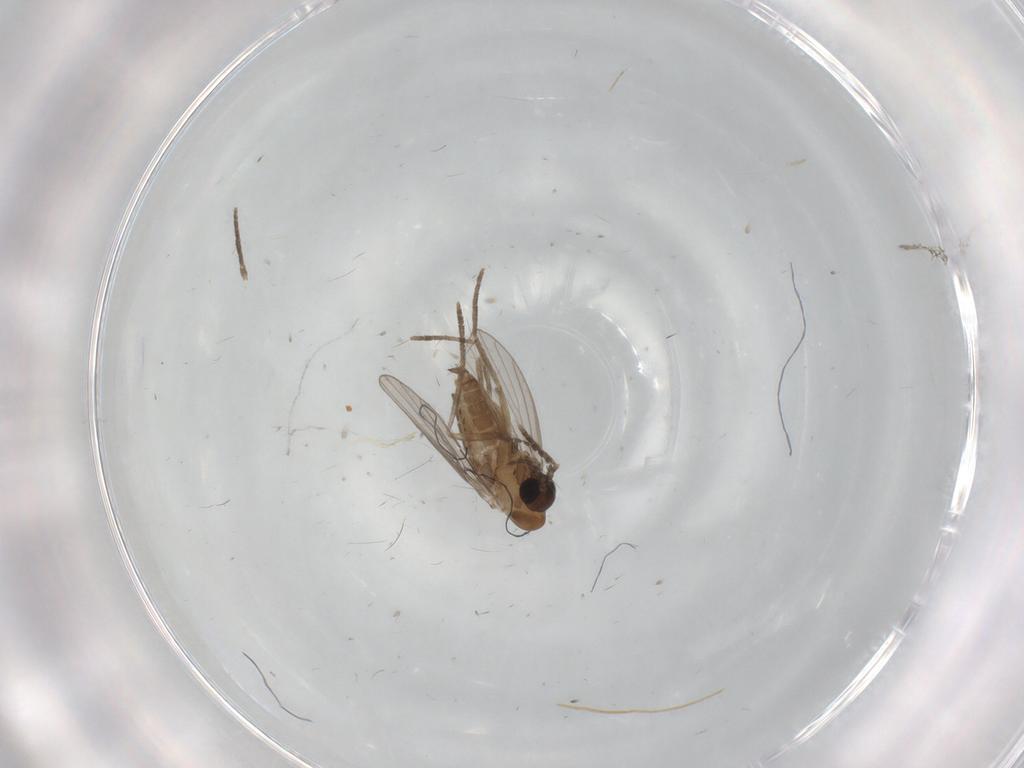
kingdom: Animalia
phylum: Arthropoda
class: Insecta
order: Diptera
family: Psychodidae
